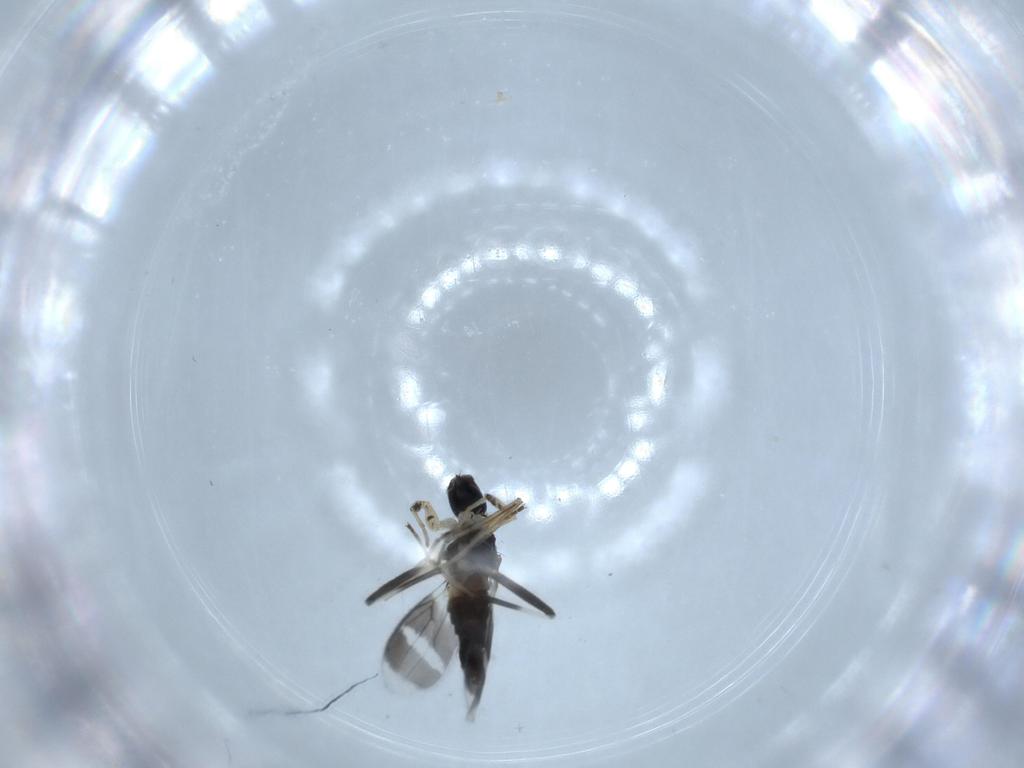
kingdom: Animalia
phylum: Arthropoda
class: Insecta
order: Diptera
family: Hybotidae
